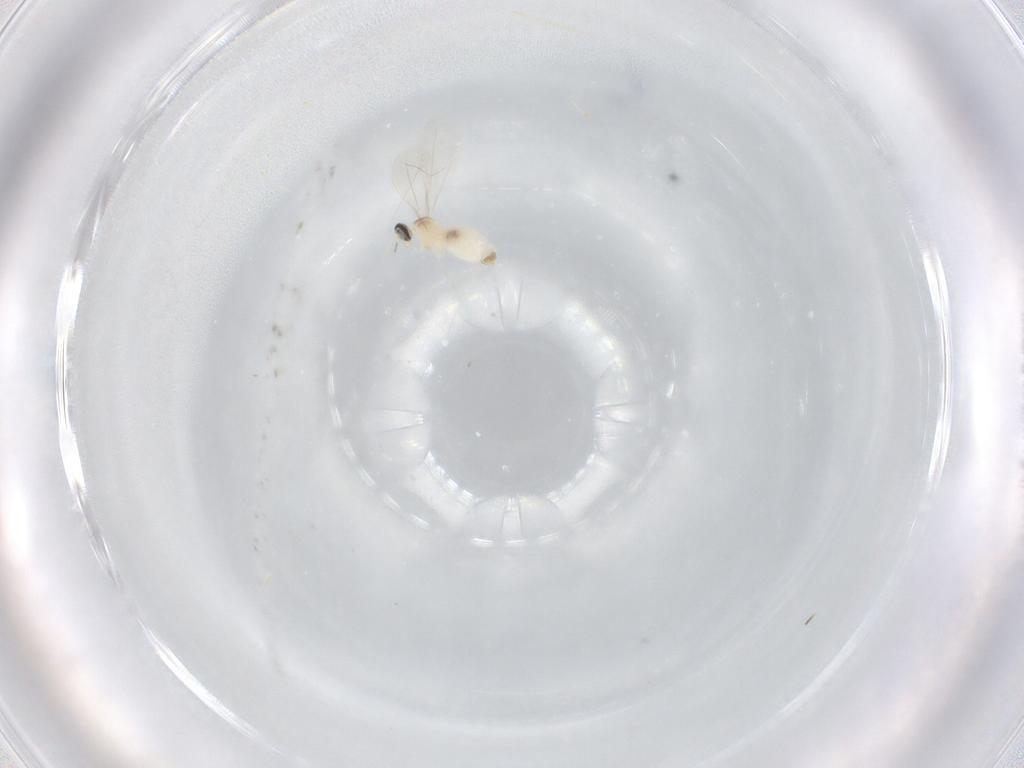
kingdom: Animalia
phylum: Arthropoda
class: Insecta
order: Diptera
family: Cecidomyiidae
